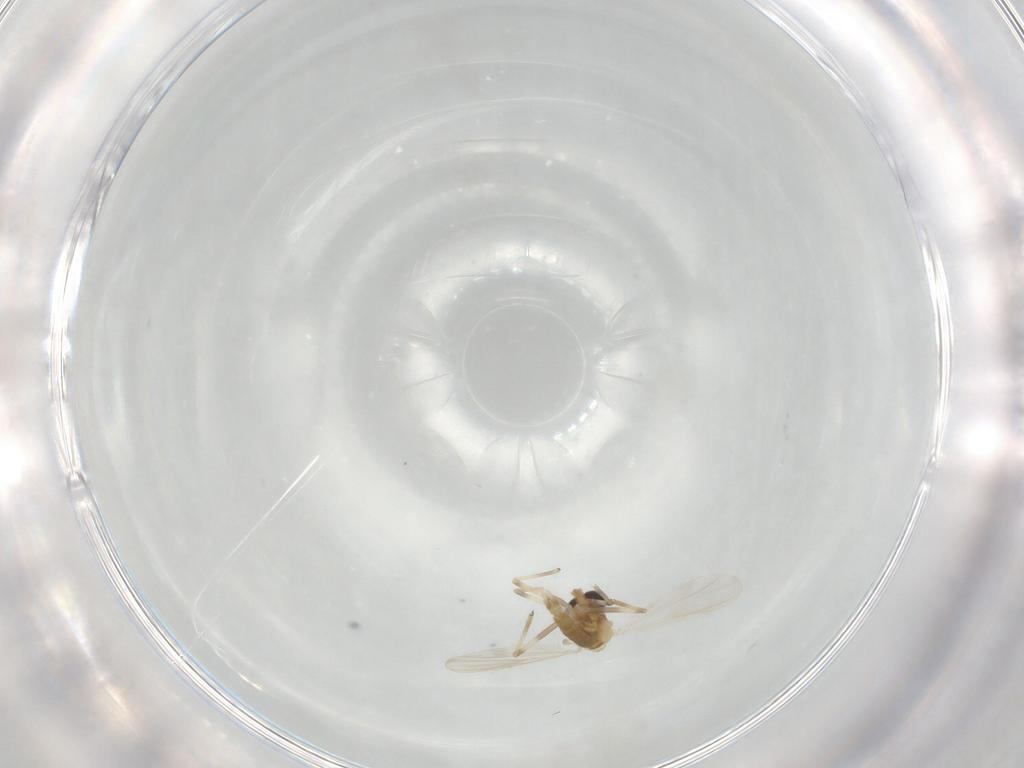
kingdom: Animalia
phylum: Arthropoda
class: Insecta
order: Diptera
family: Chironomidae
